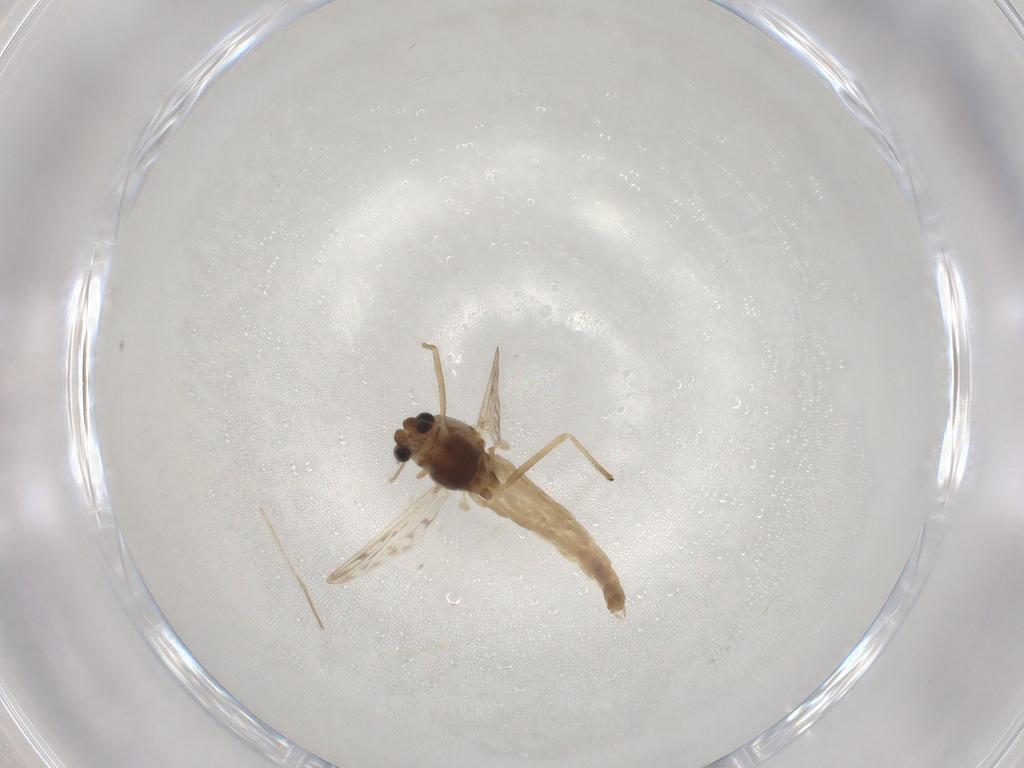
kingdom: Animalia
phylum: Arthropoda
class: Insecta
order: Diptera
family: Chironomidae
